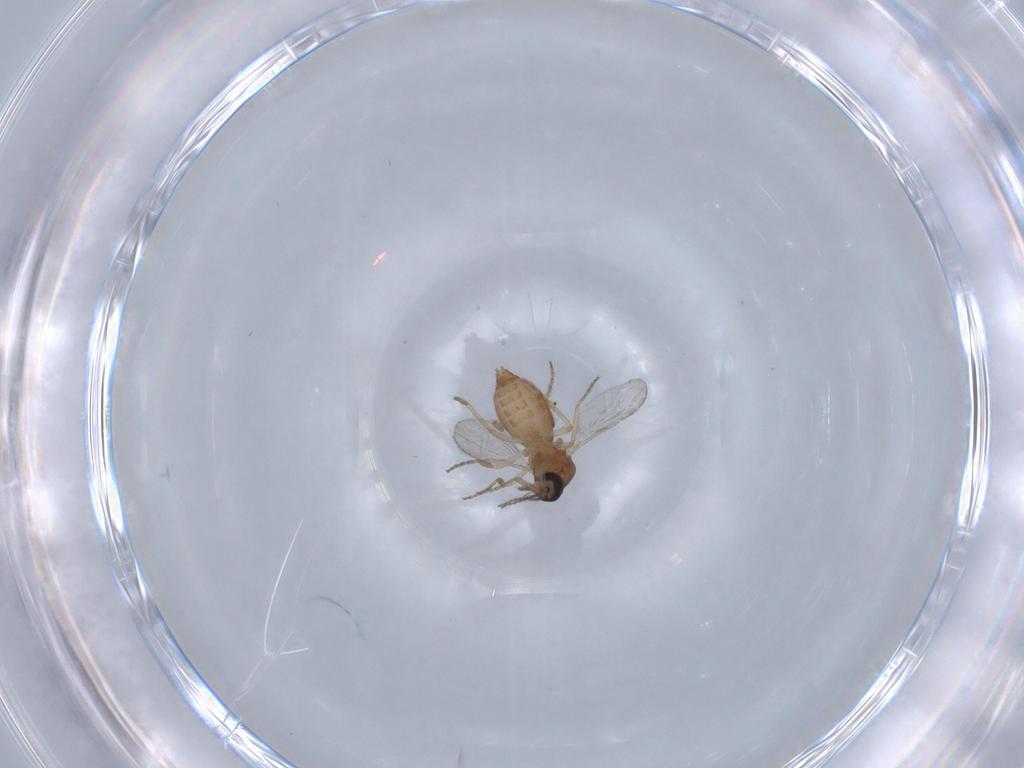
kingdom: Animalia
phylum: Arthropoda
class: Insecta
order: Diptera
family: Ceratopogonidae
